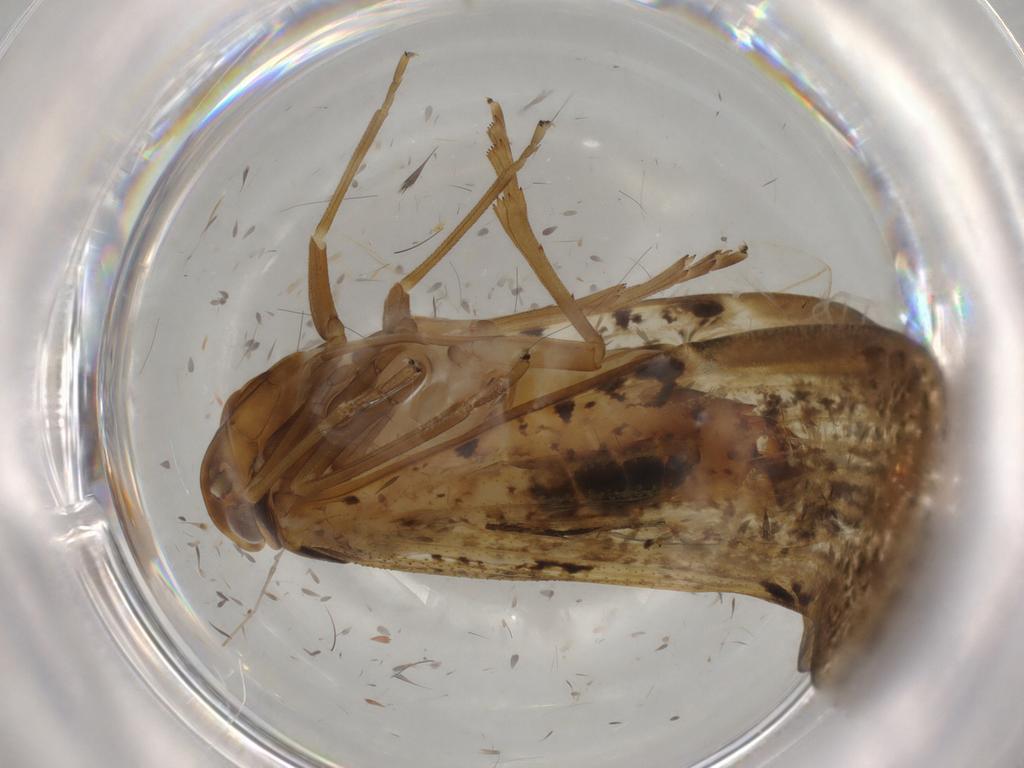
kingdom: Animalia
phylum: Arthropoda
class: Insecta
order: Hemiptera
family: Cixiidae
